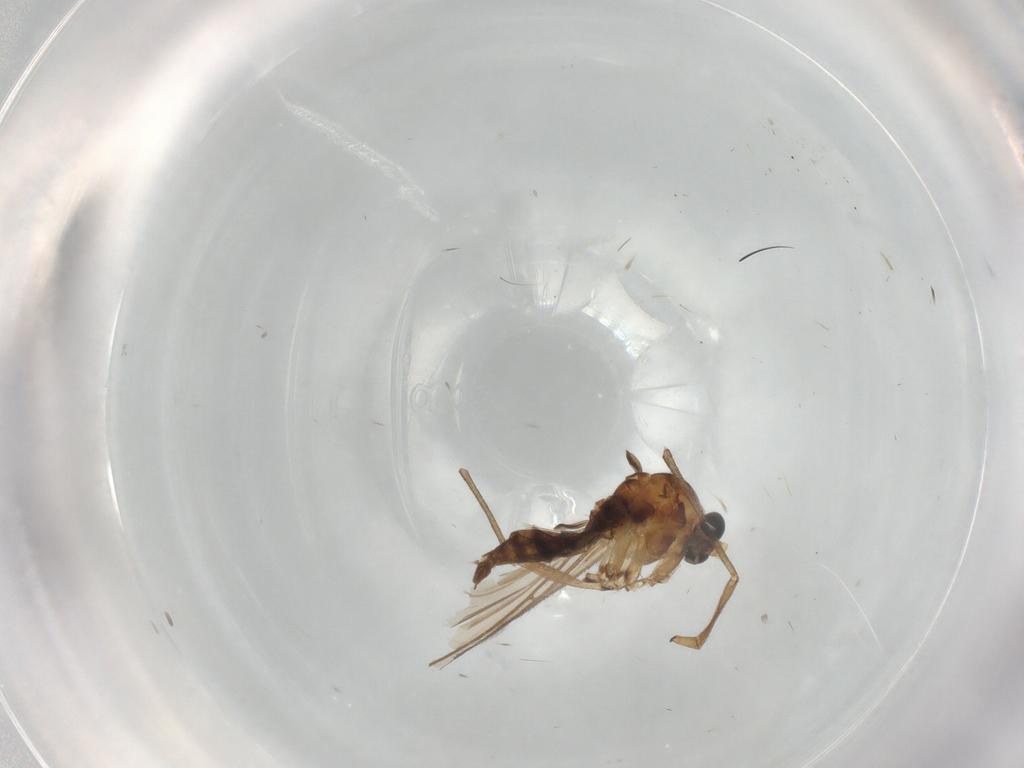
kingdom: Animalia
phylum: Arthropoda
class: Insecta
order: Diptera
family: Sciaridae
